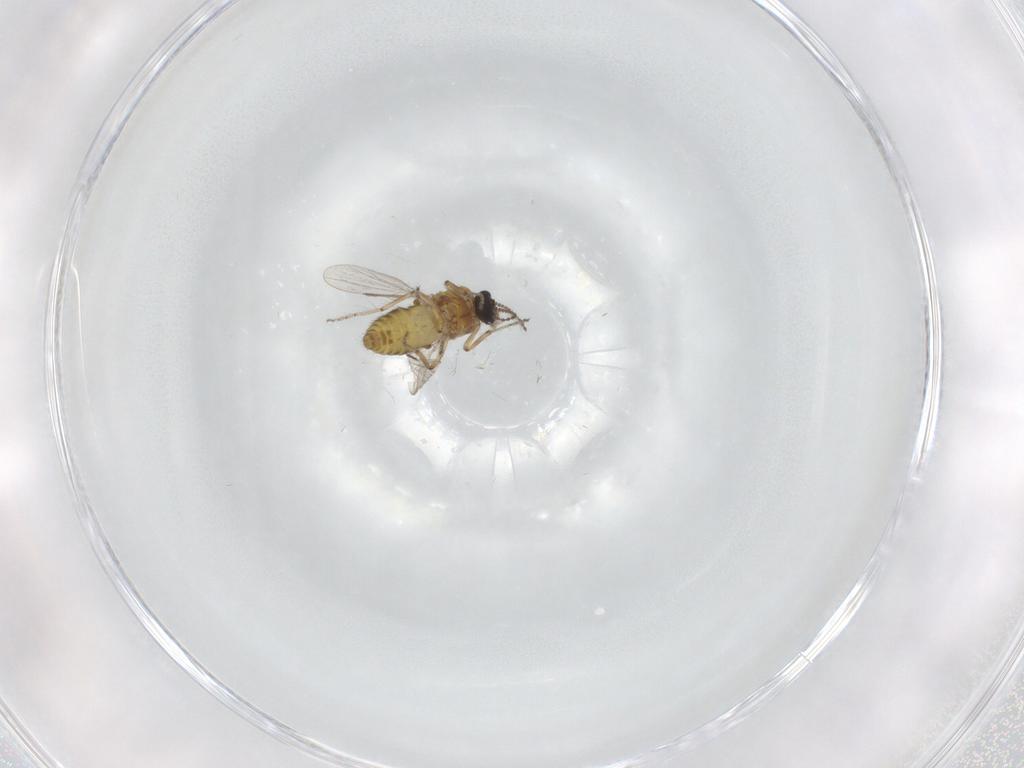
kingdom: Animalia
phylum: Arthropoda
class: Insecta
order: Diptera
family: Ceratopogonidae
